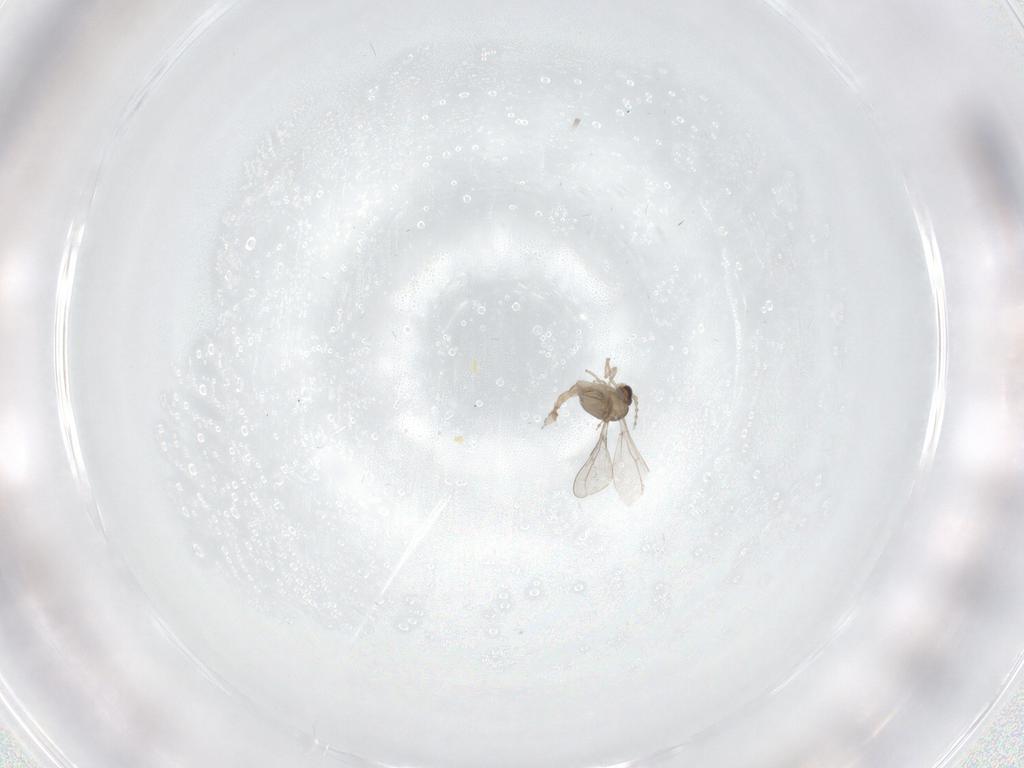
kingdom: Animalia
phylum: Arthropoda
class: Insecta
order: Diptera
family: Cecidomyiidae
